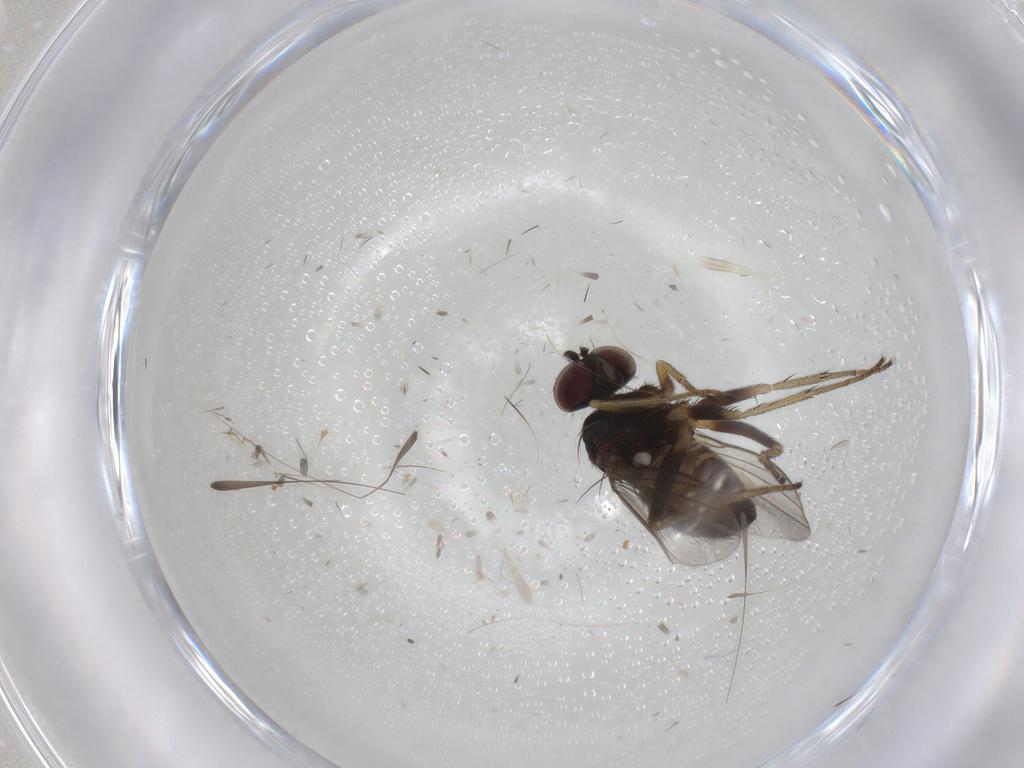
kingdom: Animalia
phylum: Arthropoda
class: Insecta
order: Diptera
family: Dolichopodidae
